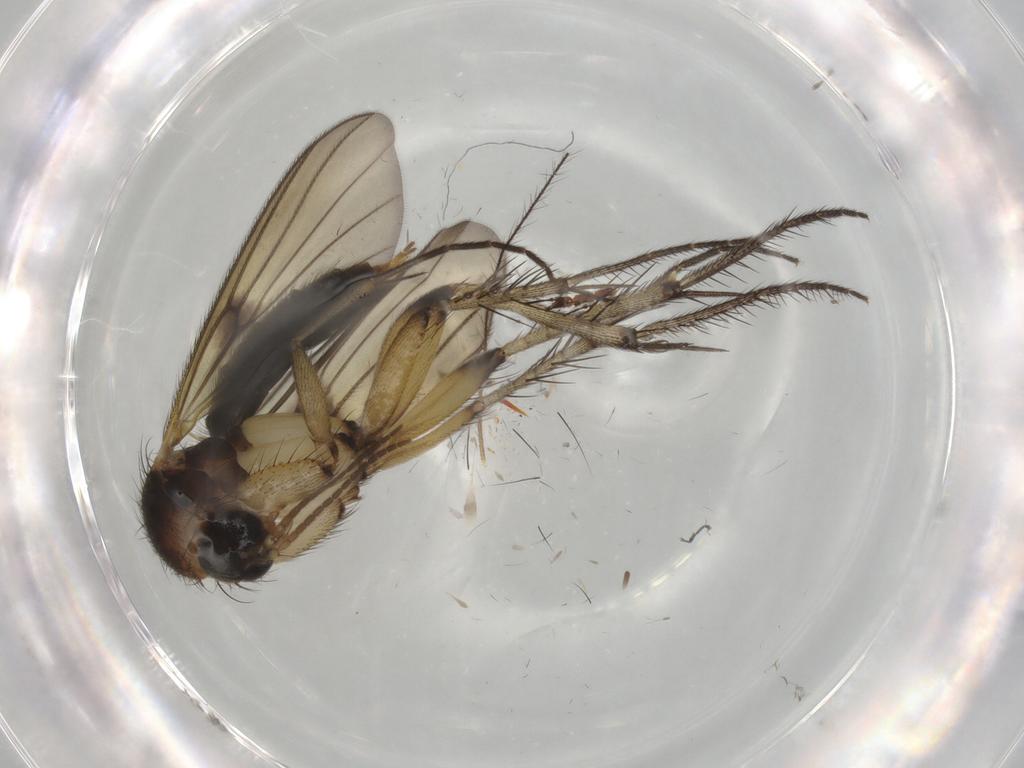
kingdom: Animalia
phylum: Arthropoda
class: Insecta
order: Diptera
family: Mycetophilidae
